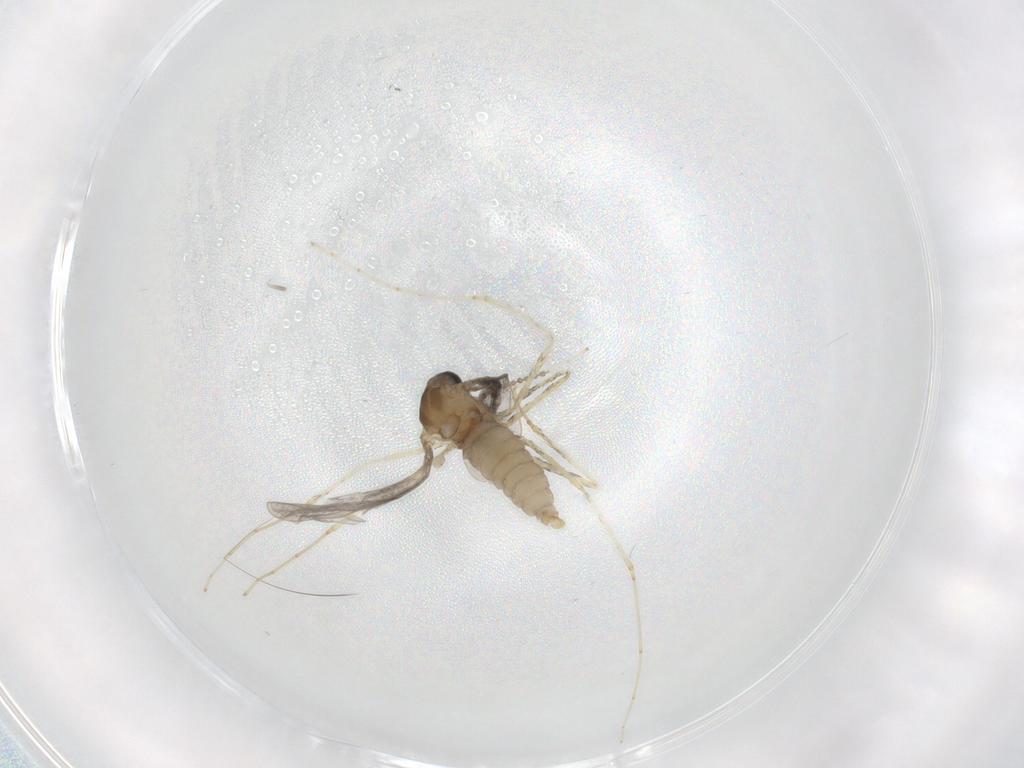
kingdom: Animalia
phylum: Arthropoda
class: Insecta
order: Diptera
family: Cecidomyiidae
